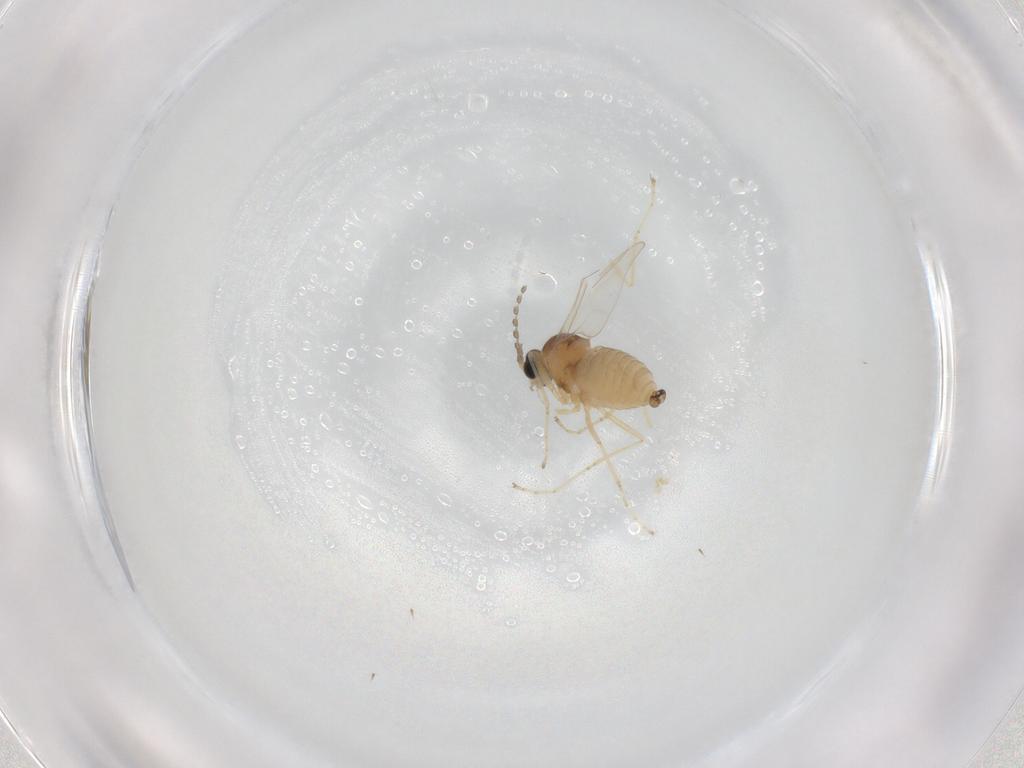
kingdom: Animalia
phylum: Arthropoda
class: Insecta
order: Diptera
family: Cecidomyiidae
